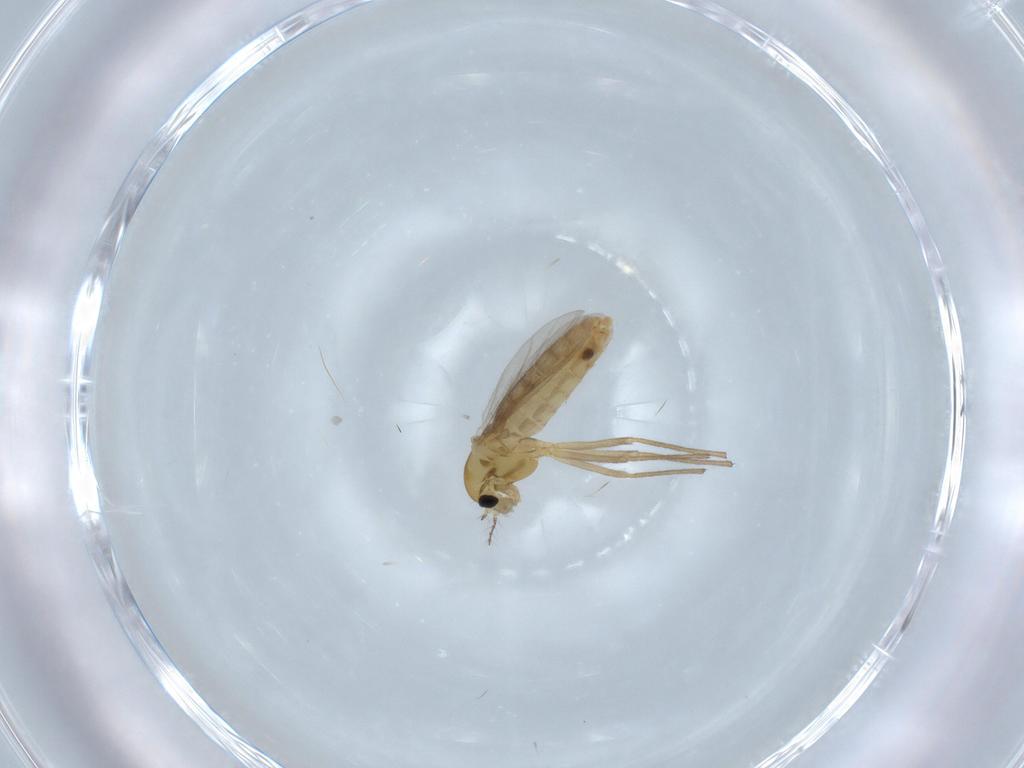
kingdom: Animalia
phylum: Arthropoda
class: Insecta
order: Diptera
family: Chironomidae
